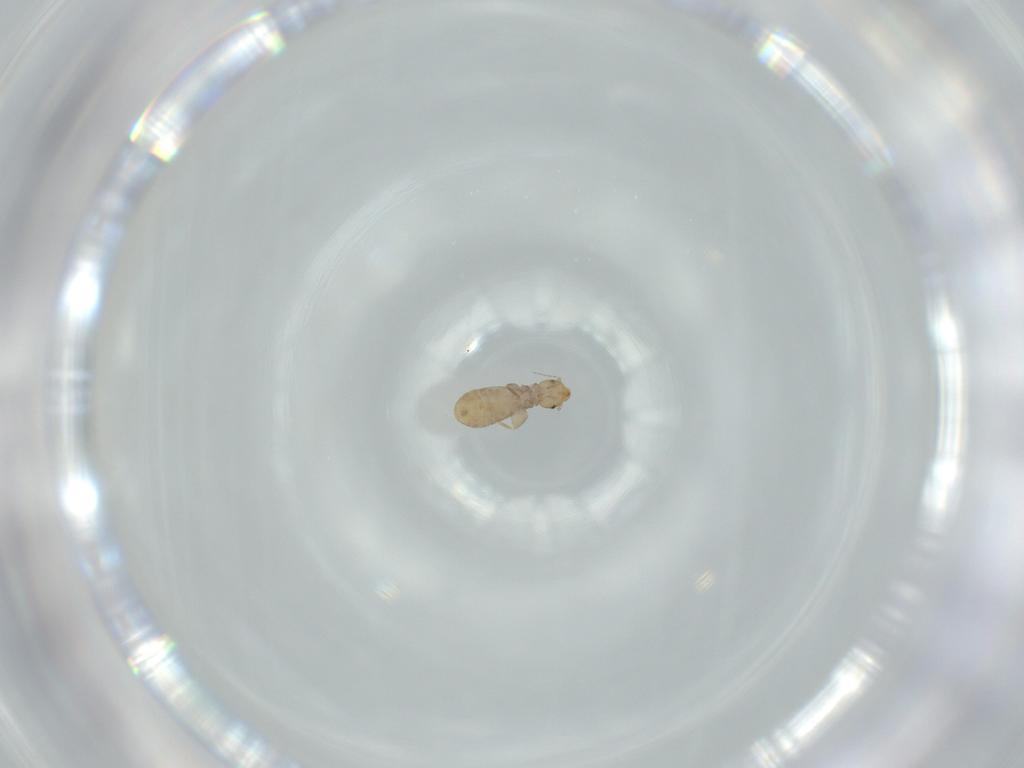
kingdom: Animalia
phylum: Arthropoda
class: Insecta
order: Psocodea
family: Liposcelididae
